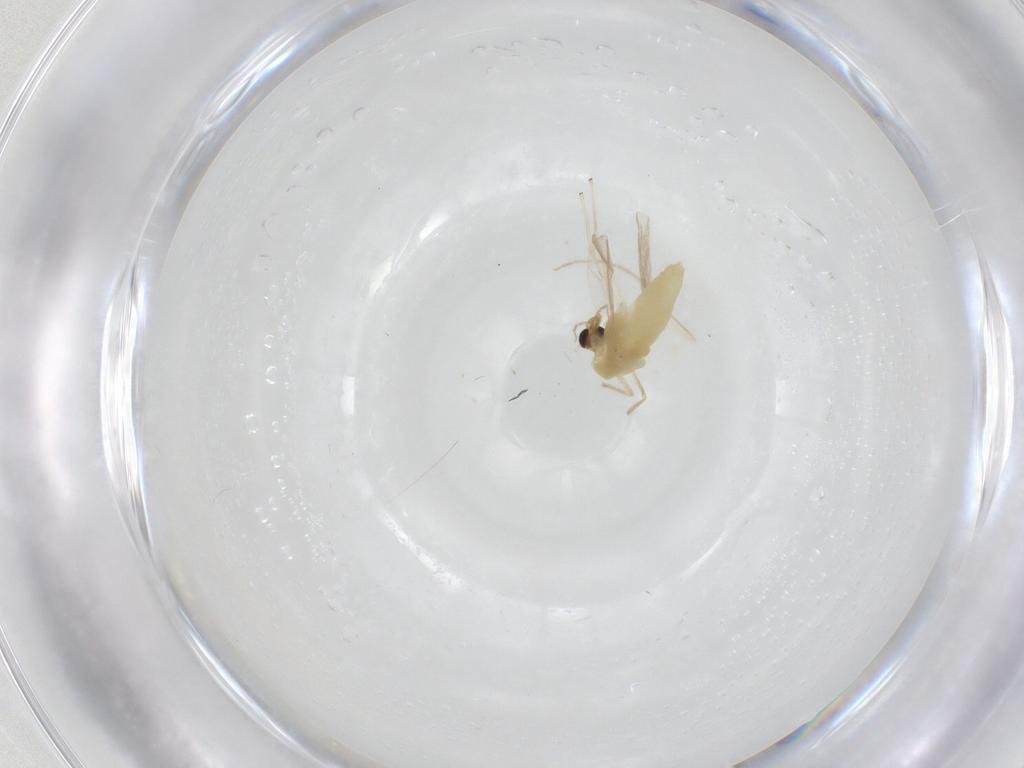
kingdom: Animalia
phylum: Arthropoda
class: Insecta
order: Diptera
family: Chironomidae
